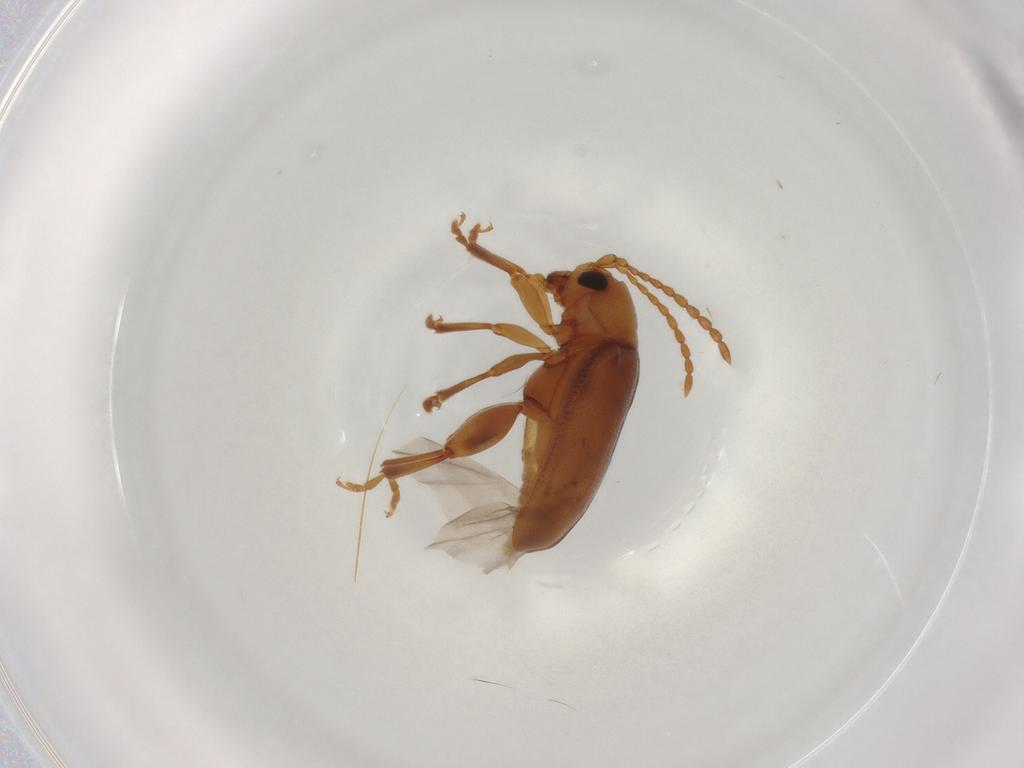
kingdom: Animalia
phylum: Arthropoda
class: Insecta
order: Coleoptera
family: Chrysomelidae
